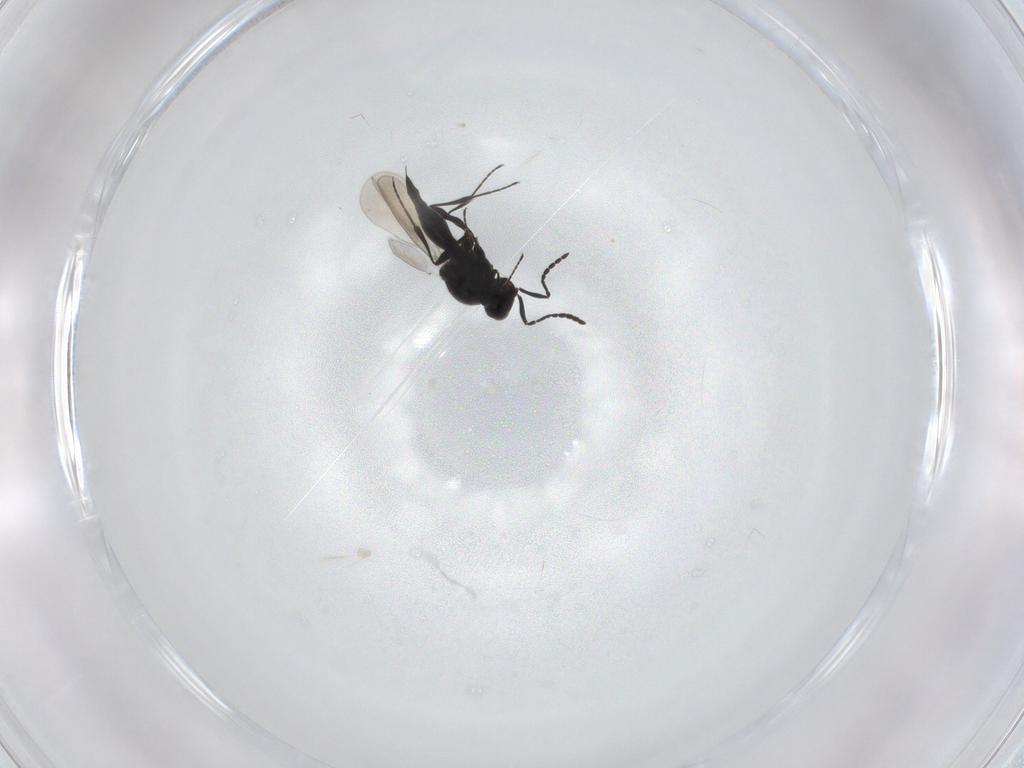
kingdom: Animalia
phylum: Arthropoda
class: Insecta
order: Hymenoptera
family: Platygastridae
